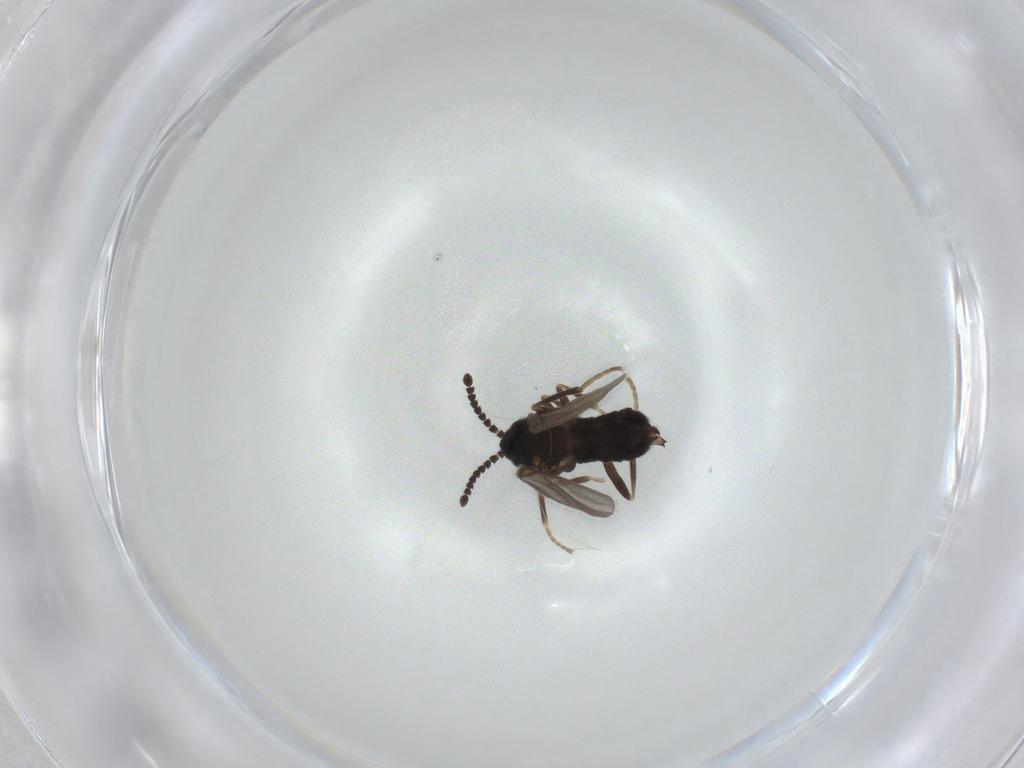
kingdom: Animalia
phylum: Arthropoda
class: Insecta
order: Diptera
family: Scatopsidae
